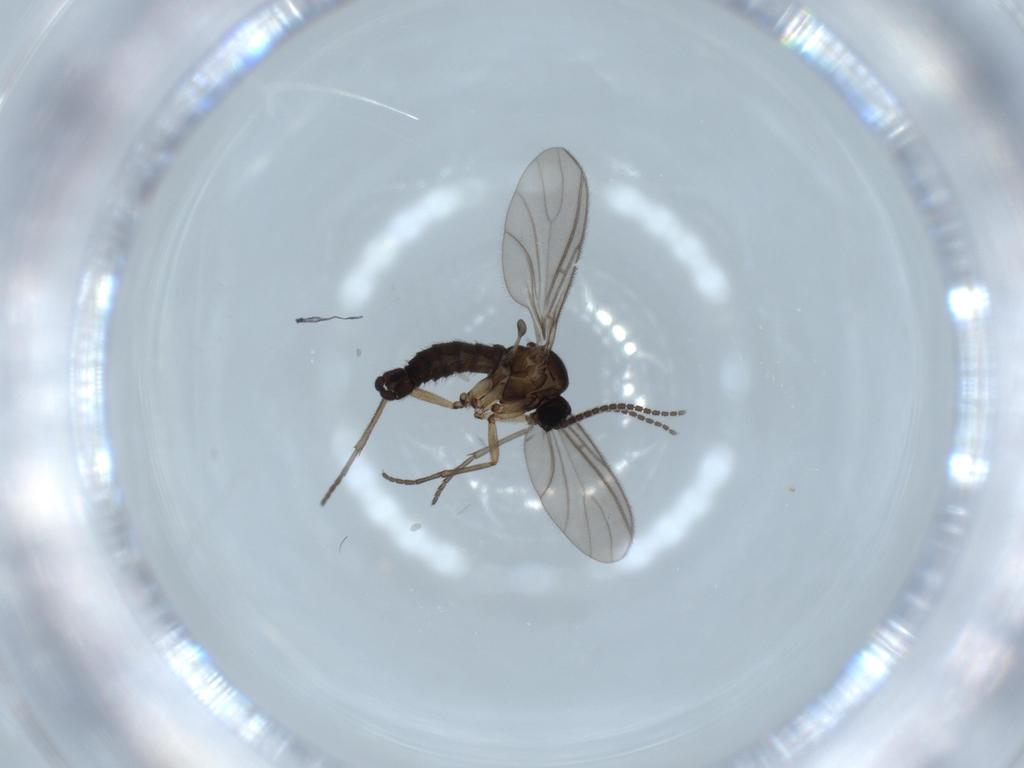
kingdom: Animalia
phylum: Arthropoda
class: Insecta
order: Diptera
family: Sciaridae
